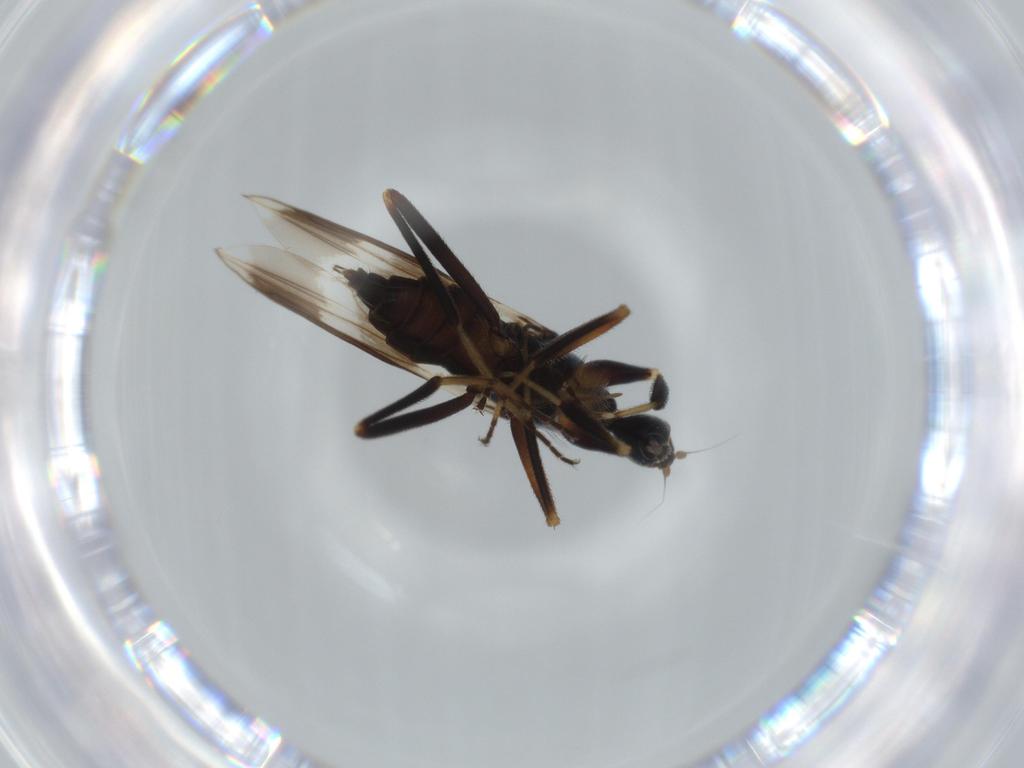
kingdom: Animalia
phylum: Arthropoda
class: Insecta
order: Diptera
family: Hybotidae
